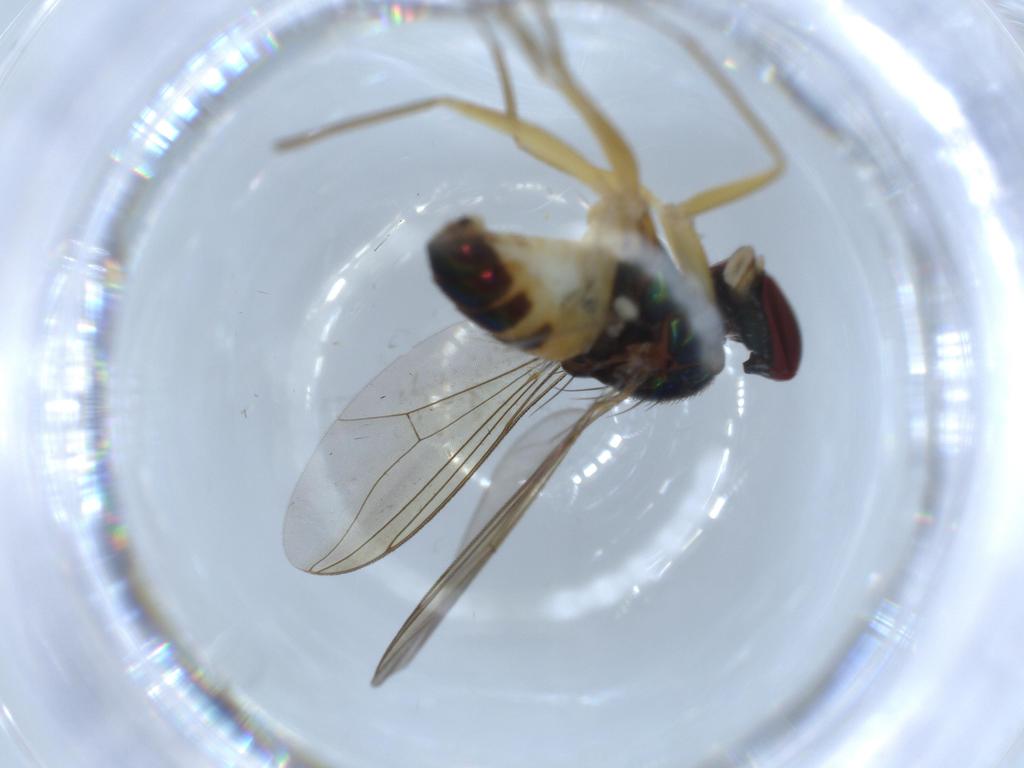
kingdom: Animalia
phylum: Arthropoda
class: Insecta
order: Diptera
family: Dolichopodidae
